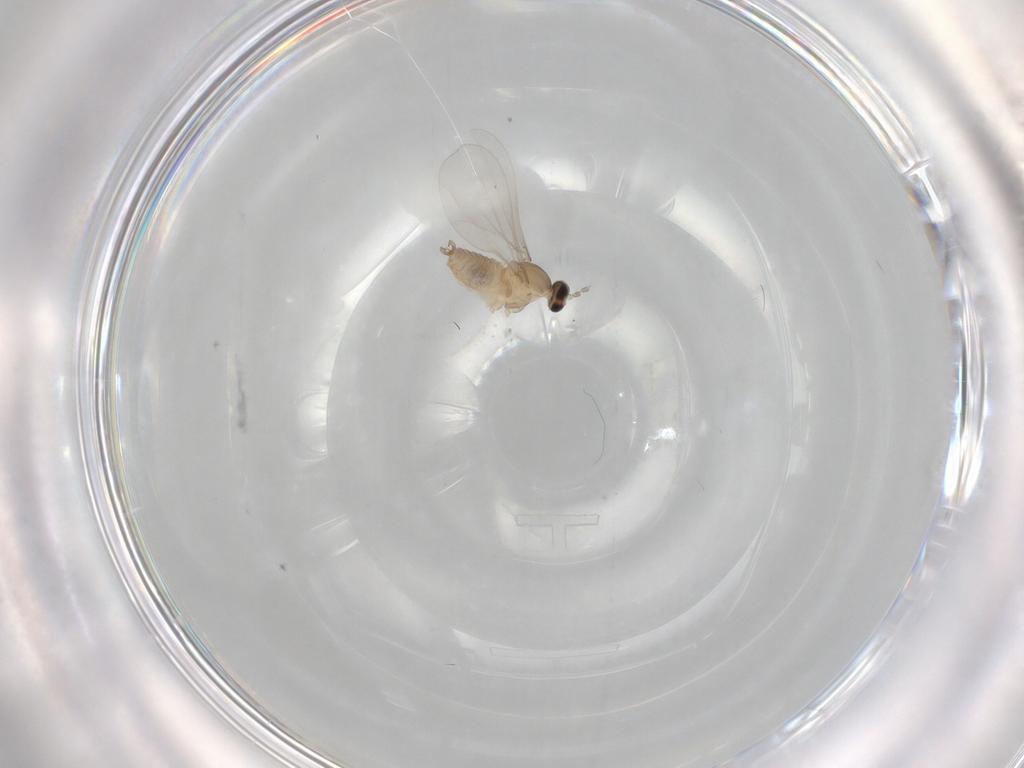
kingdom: Animalia
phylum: Arthropoda
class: Insecta
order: Diptera
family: Cecidomyiidae
